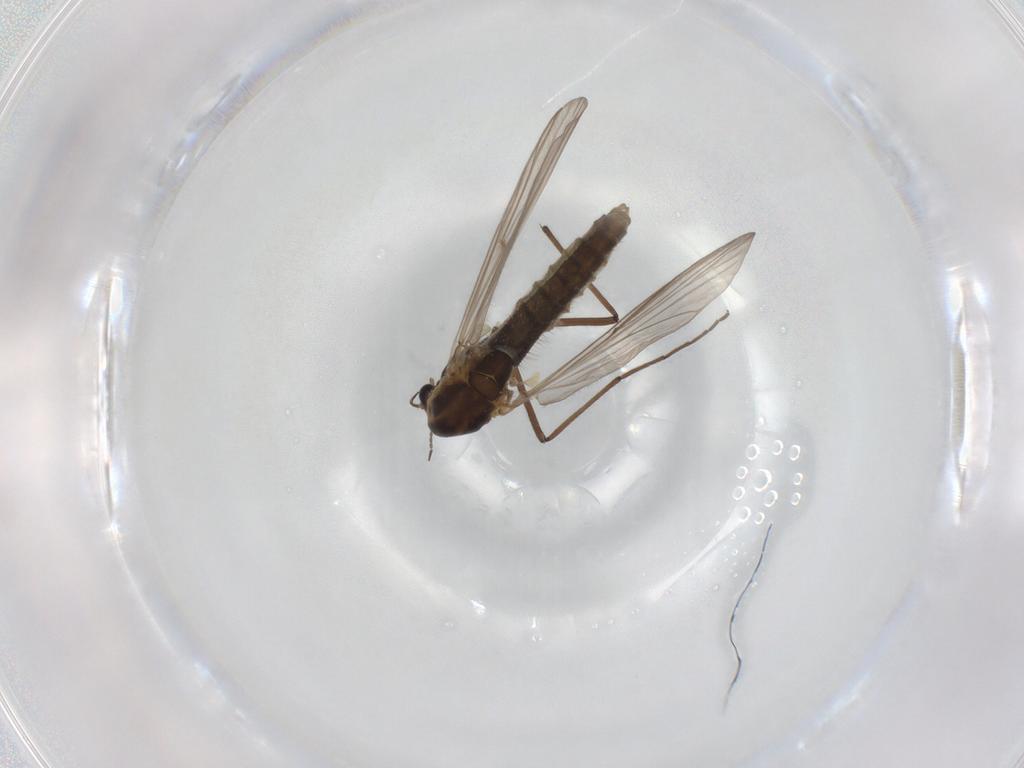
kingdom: Animalia
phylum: Arthropoda
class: Insecta
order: Diptera
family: Mycetophilidae
